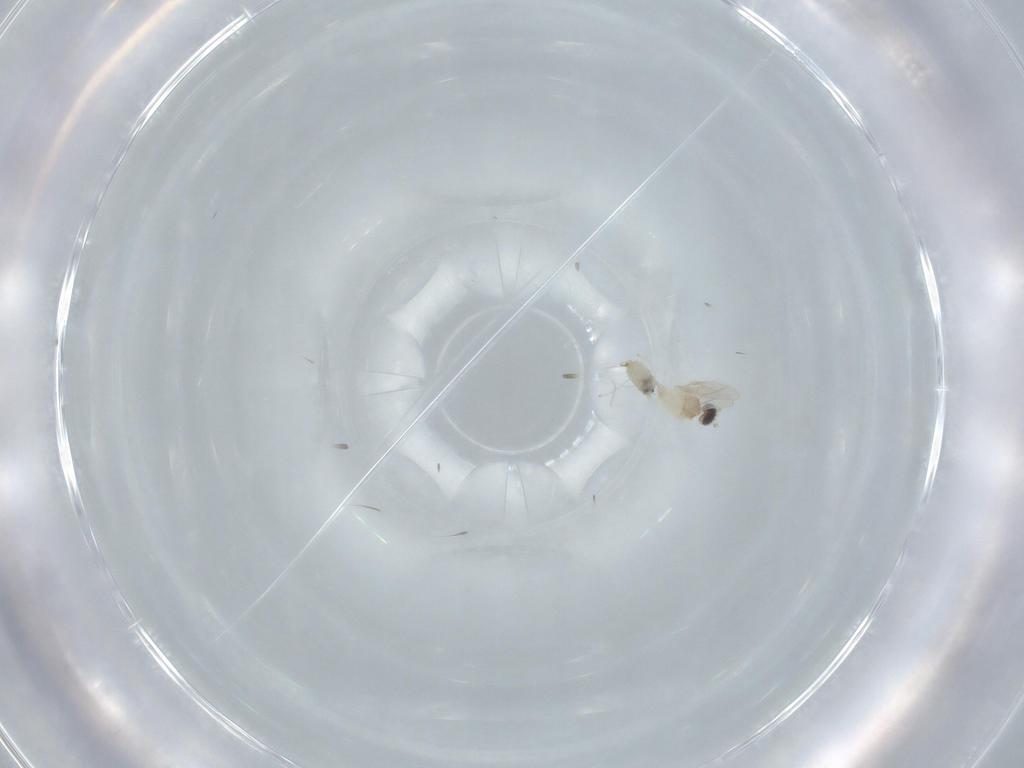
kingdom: Animalia
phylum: Arthropoda
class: Insecta
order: Diptera
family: Cecidomyiidae
